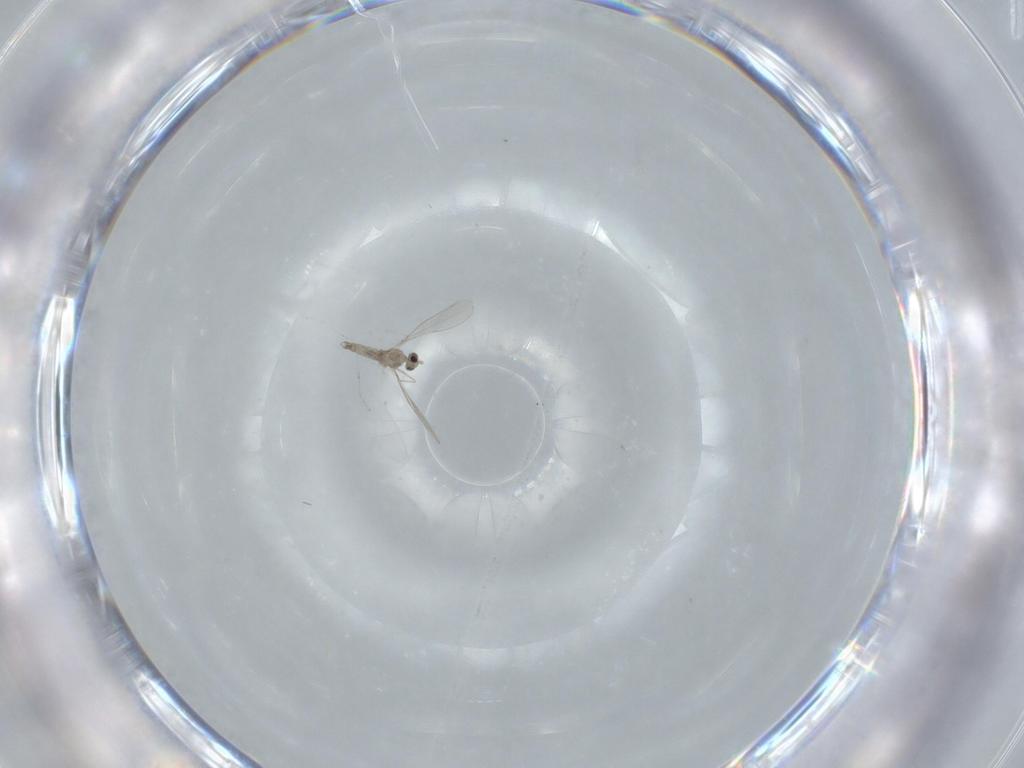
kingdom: Animalia
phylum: Arthropoda
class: Insecta
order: Diptera
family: Cecidomyiidae
